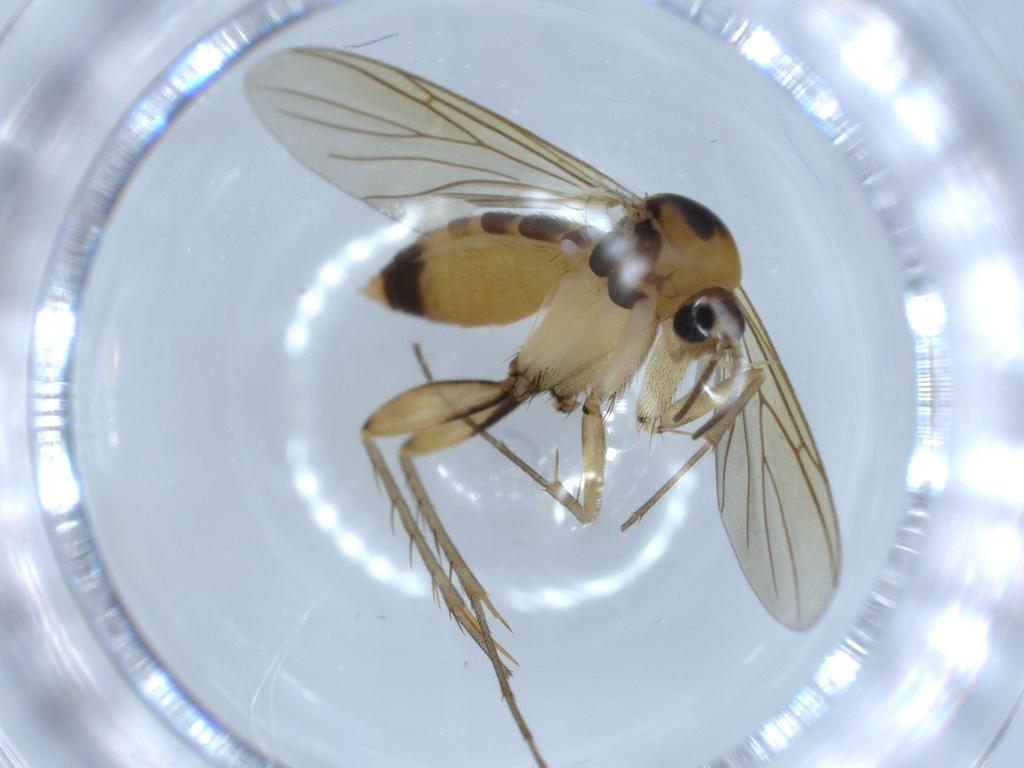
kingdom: Animalia
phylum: Arthropoda
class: Insecta
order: Diptera
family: Mycetophilidae
